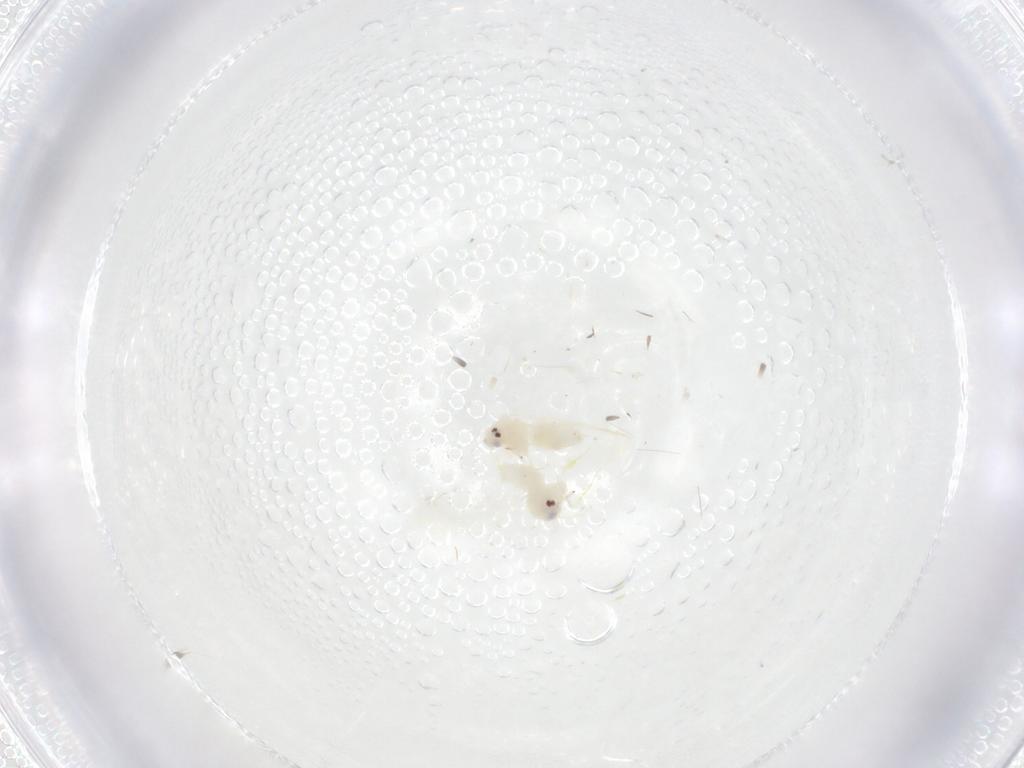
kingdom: Animalia
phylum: Arthropoda
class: Insecta
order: Hemiptera
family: Aleyrodidae
